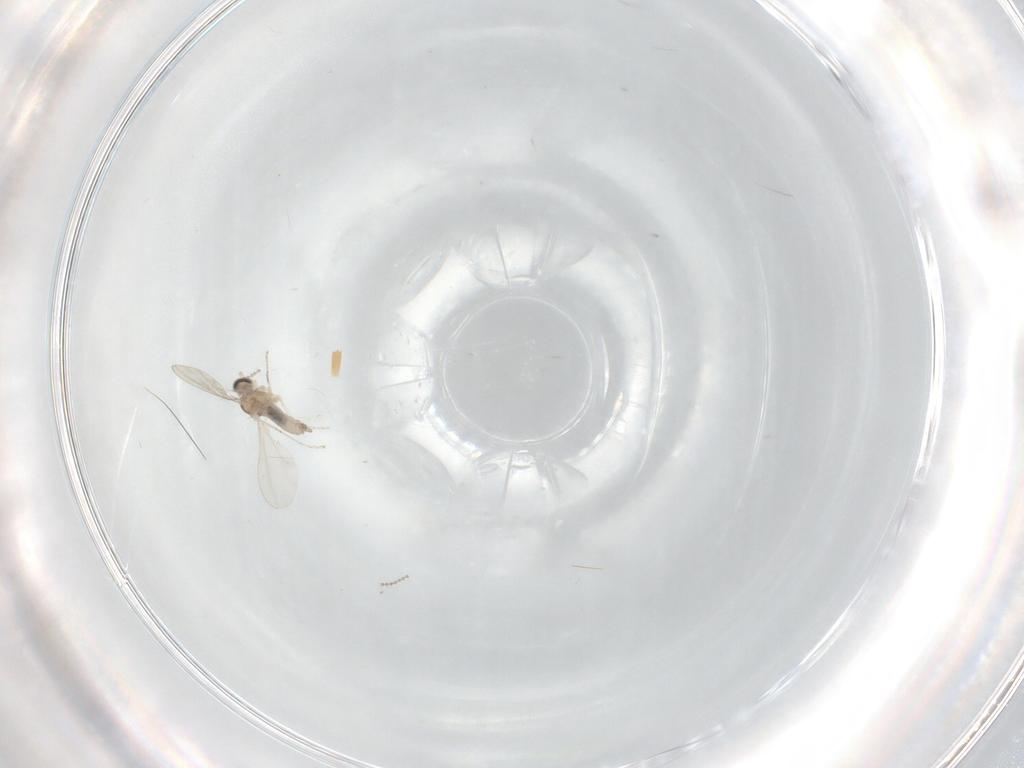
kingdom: Animalia
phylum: Arthropoda
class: Insecta
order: Diptera
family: Cecidomyiidae
